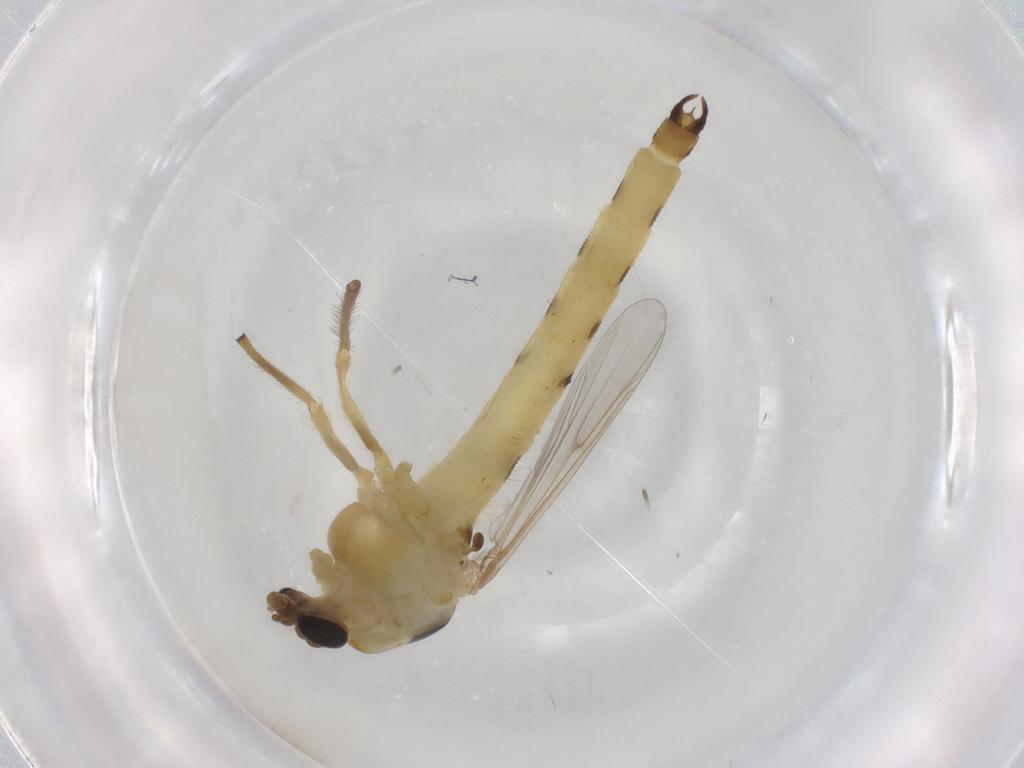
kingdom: Animalia
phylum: Arthropoda
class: Insecta
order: Diptera
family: Chironomidae
